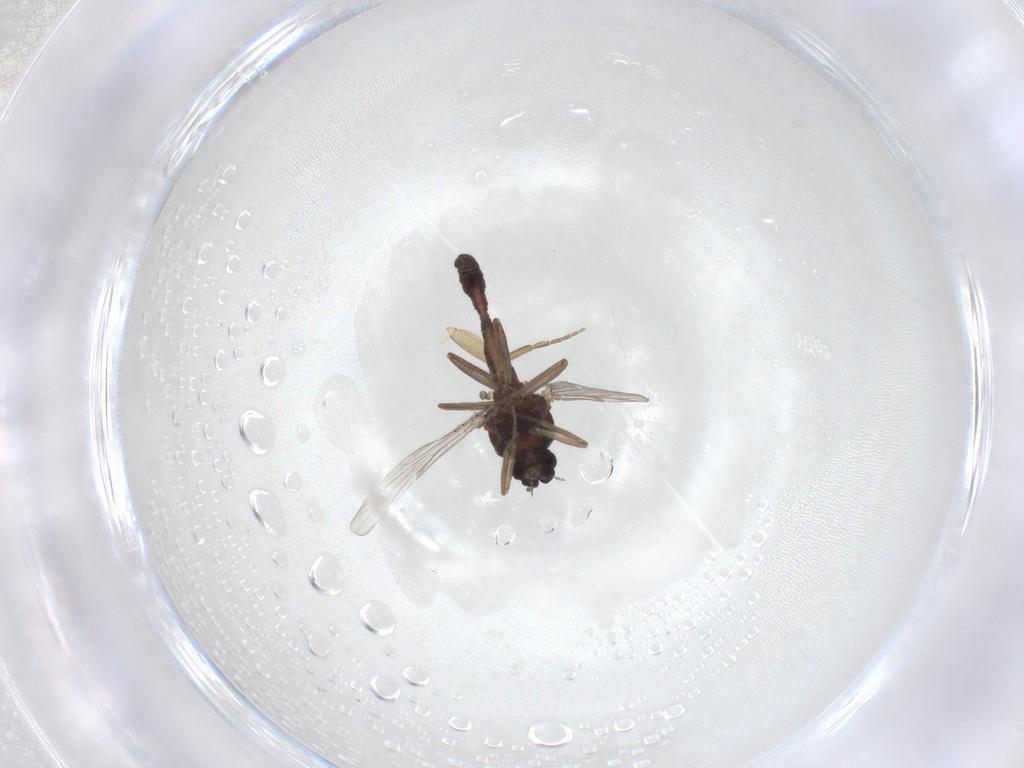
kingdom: Animalia
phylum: Arthropoda
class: Insecta
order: Diptera
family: Ceratopogonidae
